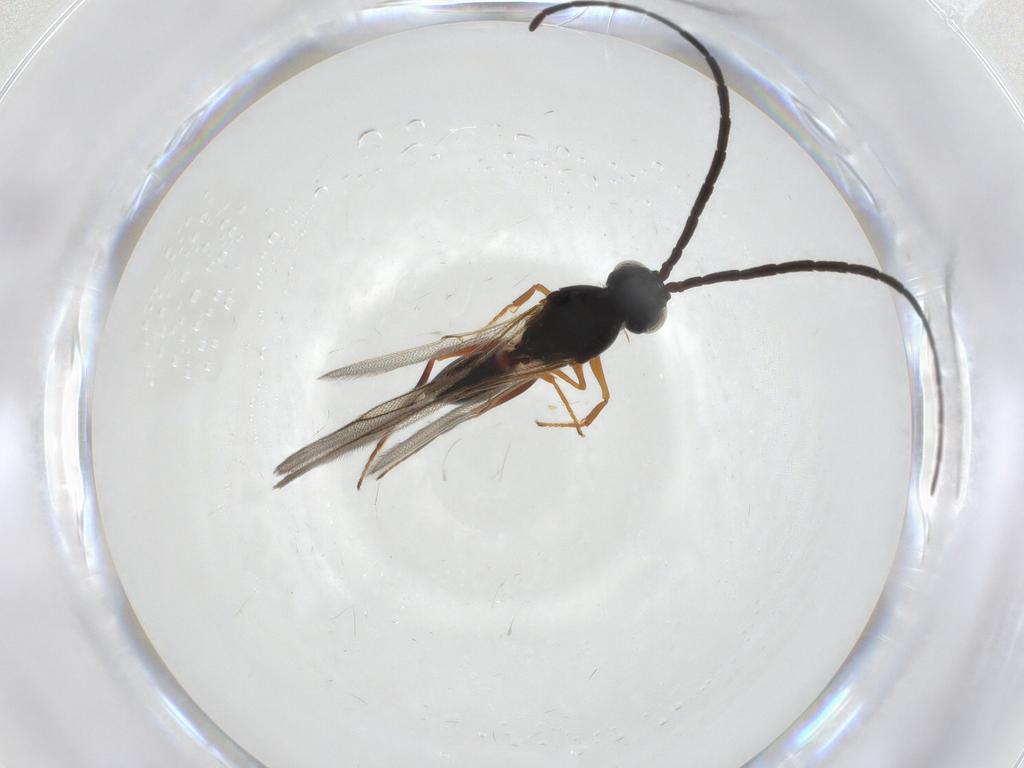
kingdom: Animalia
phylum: Arthropoda
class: Insecta
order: Hymenoptera
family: Figitidae
